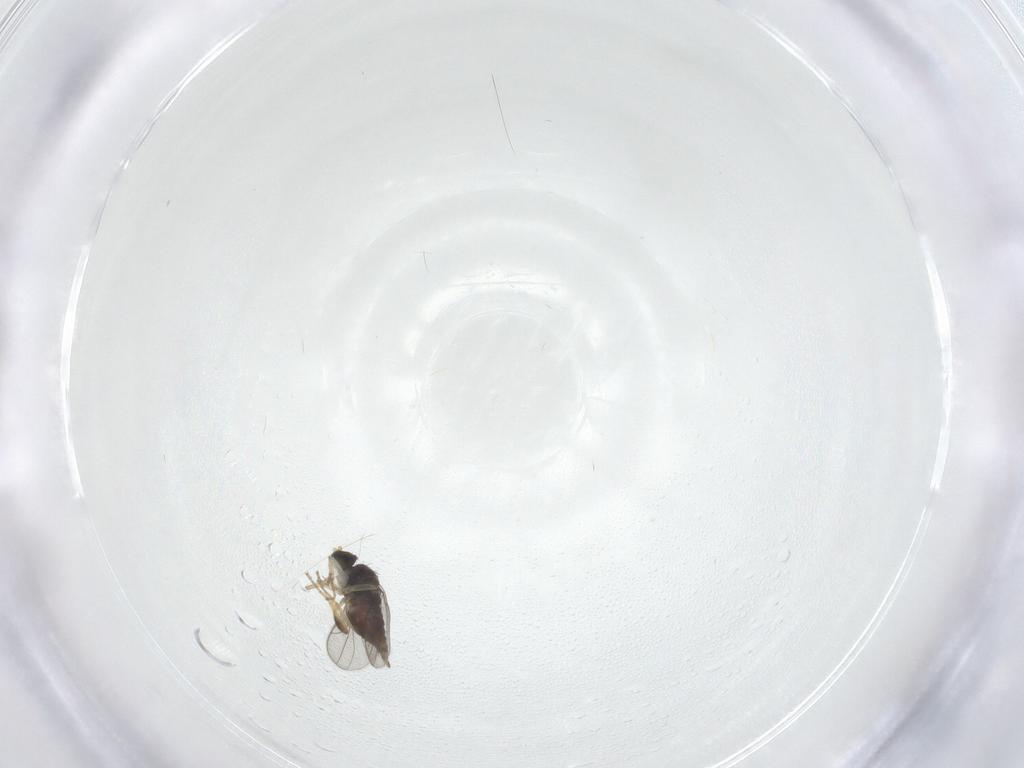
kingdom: Animalia
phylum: Arthropoda
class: Insecta
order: Diptera
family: Hybotidae
